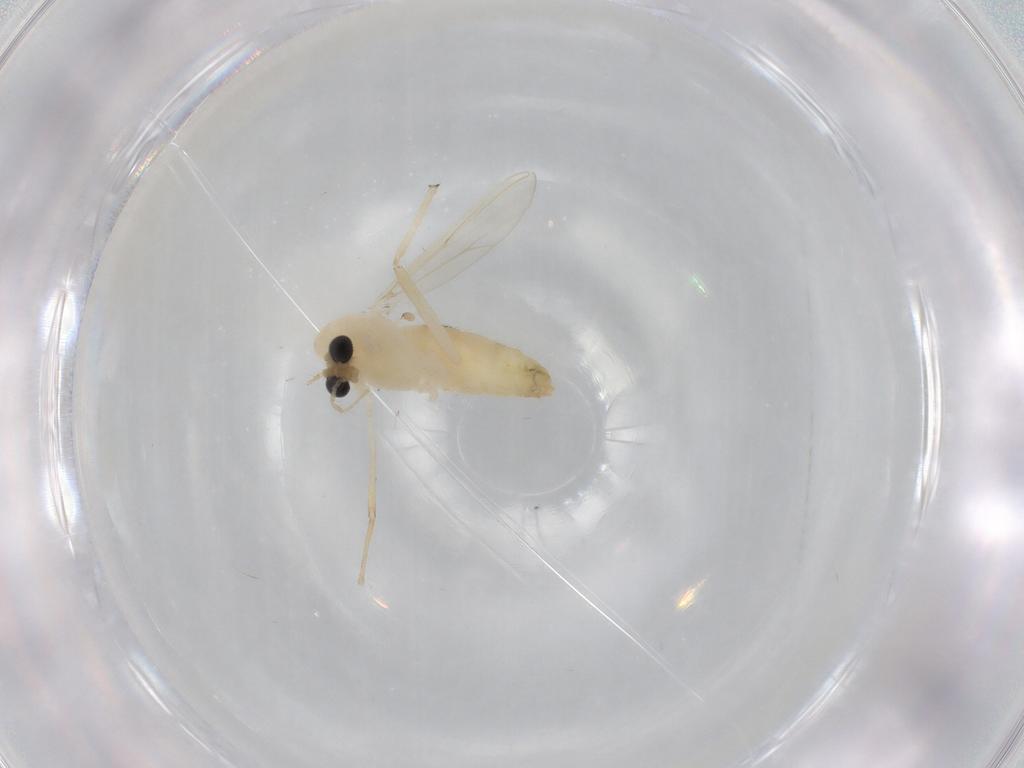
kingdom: Animalia
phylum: Arthropoda
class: Insecta
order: Diptera
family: Chironomidae
